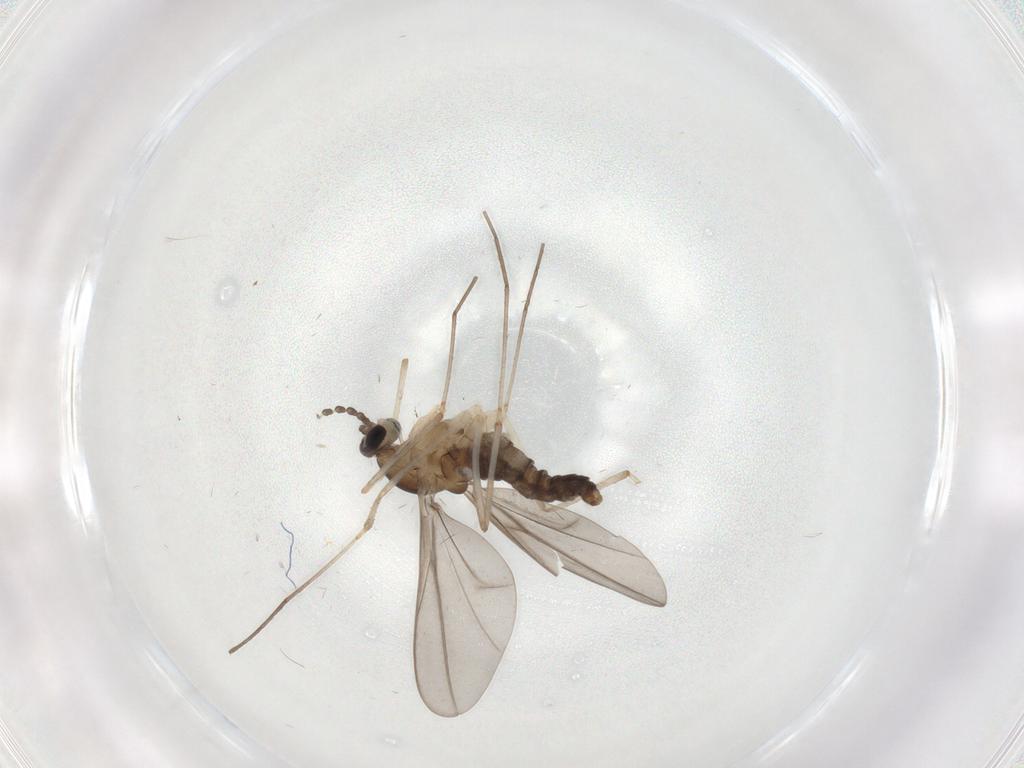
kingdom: Animalia
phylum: Arthropoda
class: Insecta
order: Diptera
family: Cecidomyiidae
